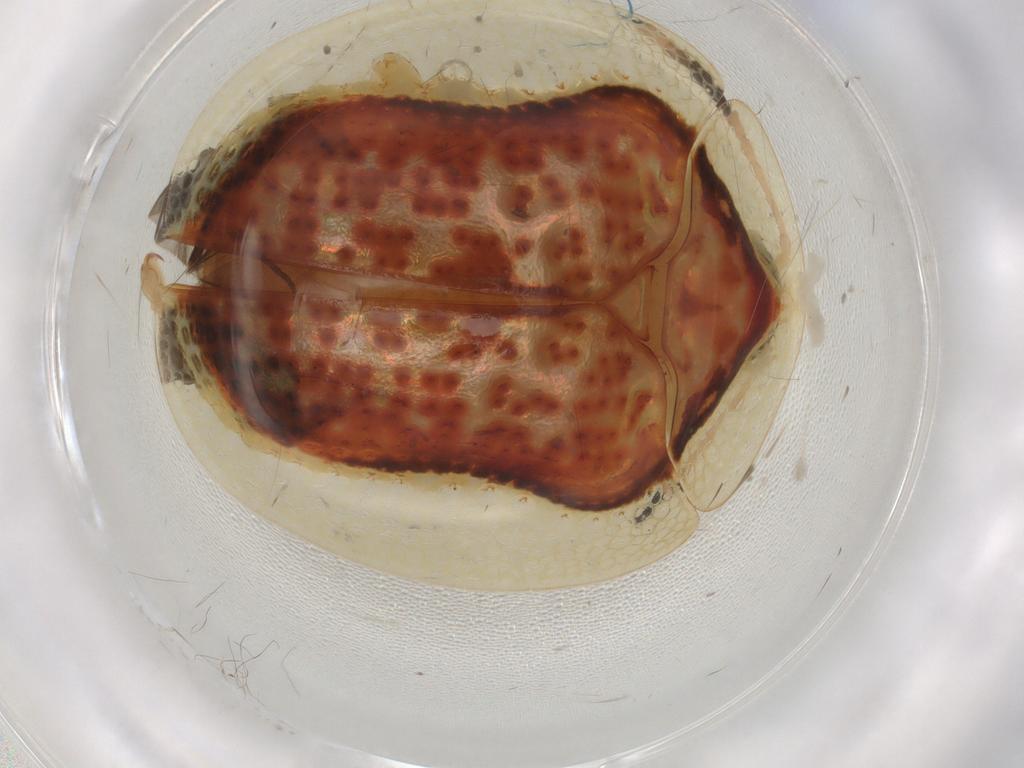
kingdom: Animalia
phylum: Arthropoda
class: Insecta
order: Coleoptera
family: Chrysomelidae
